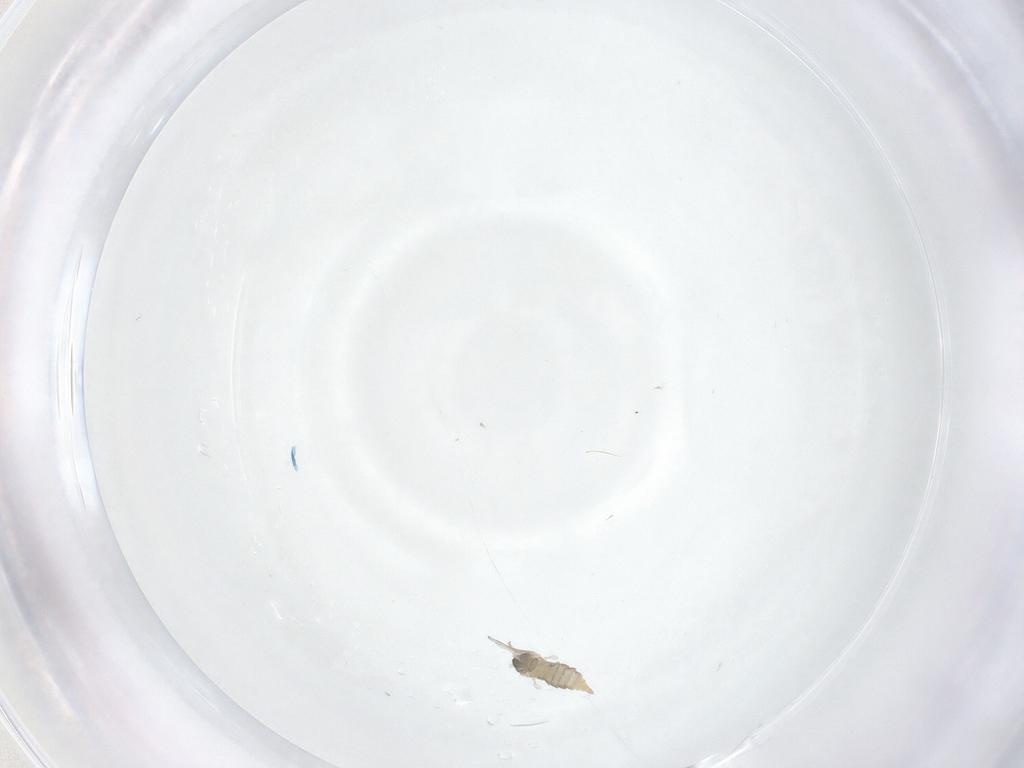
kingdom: Animalia
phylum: Arthropoda
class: Insecta
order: Diptera
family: Cecidomyiidae
